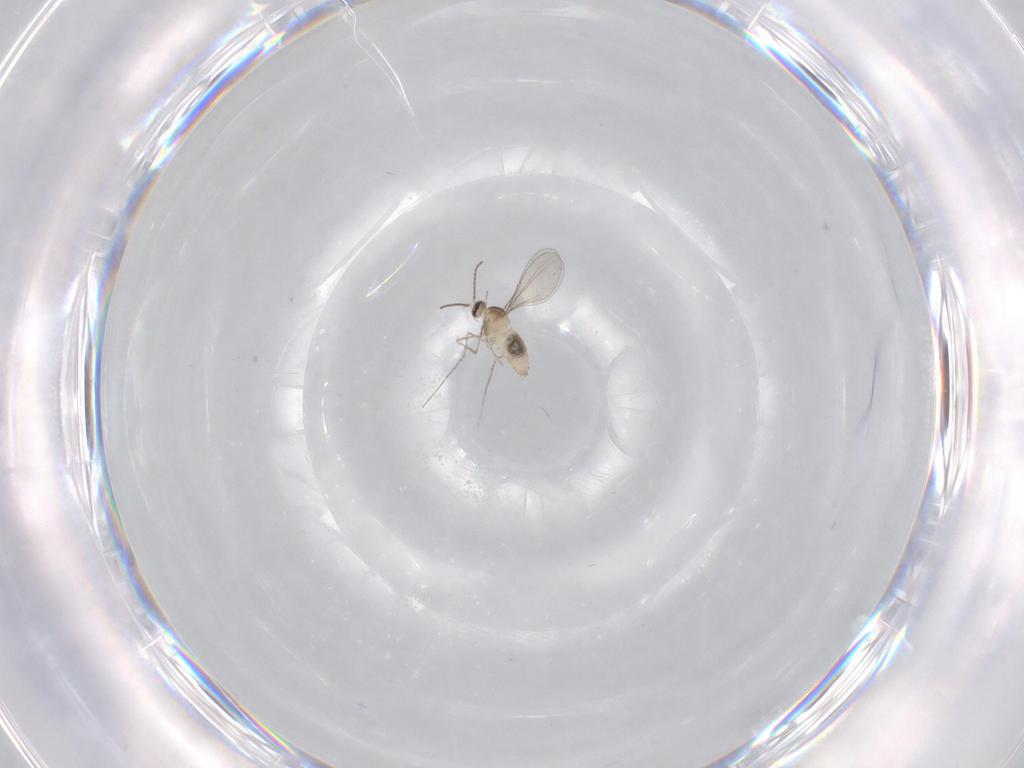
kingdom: Animalia
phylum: Arthropoda
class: Insecta
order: Diptera
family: Cecidomyiidae
